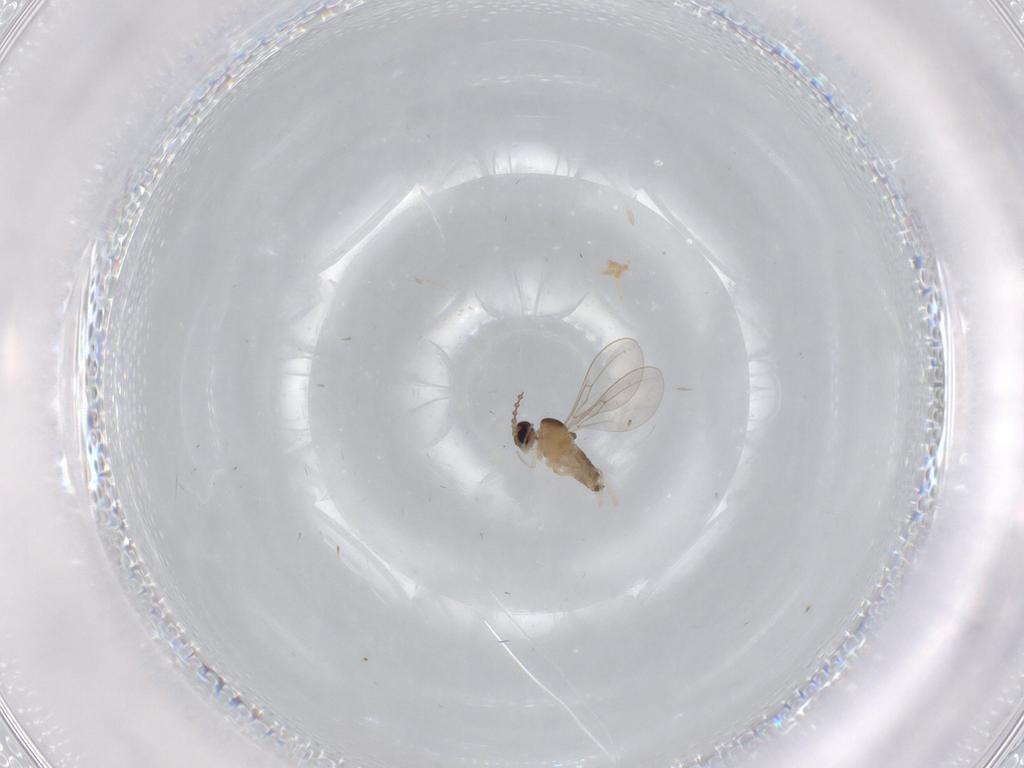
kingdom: Animalia
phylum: Arthropoda
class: Insecta
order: Diptera
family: Cecidomyiidae
